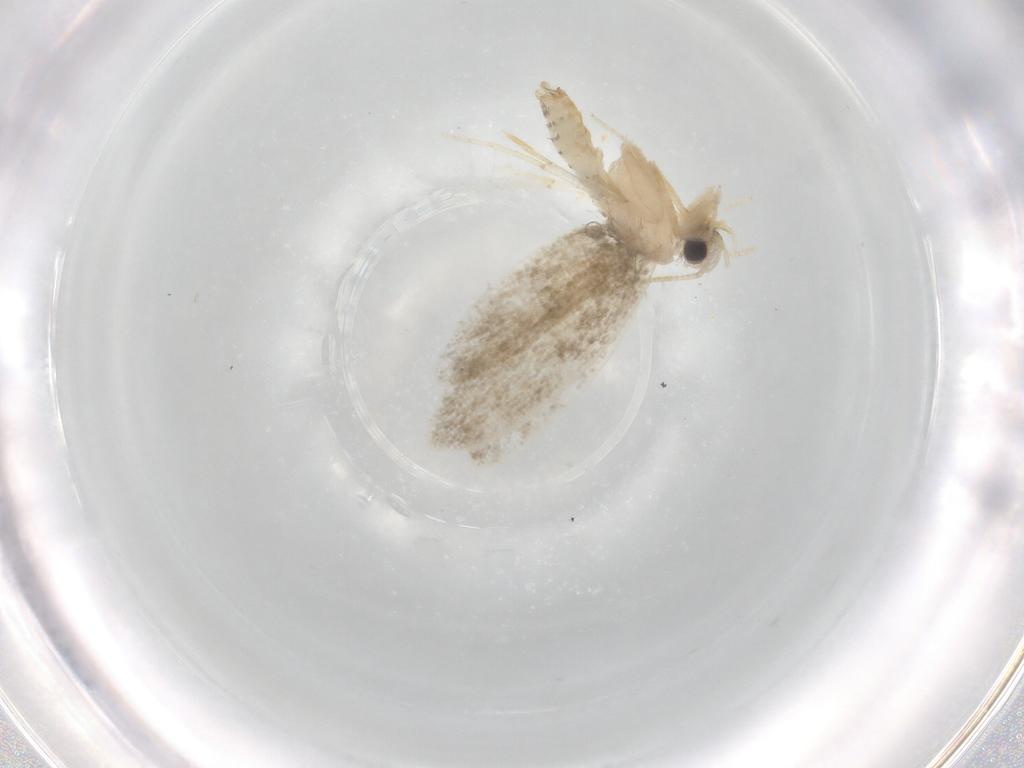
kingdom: Animalia
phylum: Arthropoda
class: Insecta
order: Lepidoptera
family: Psychidae
